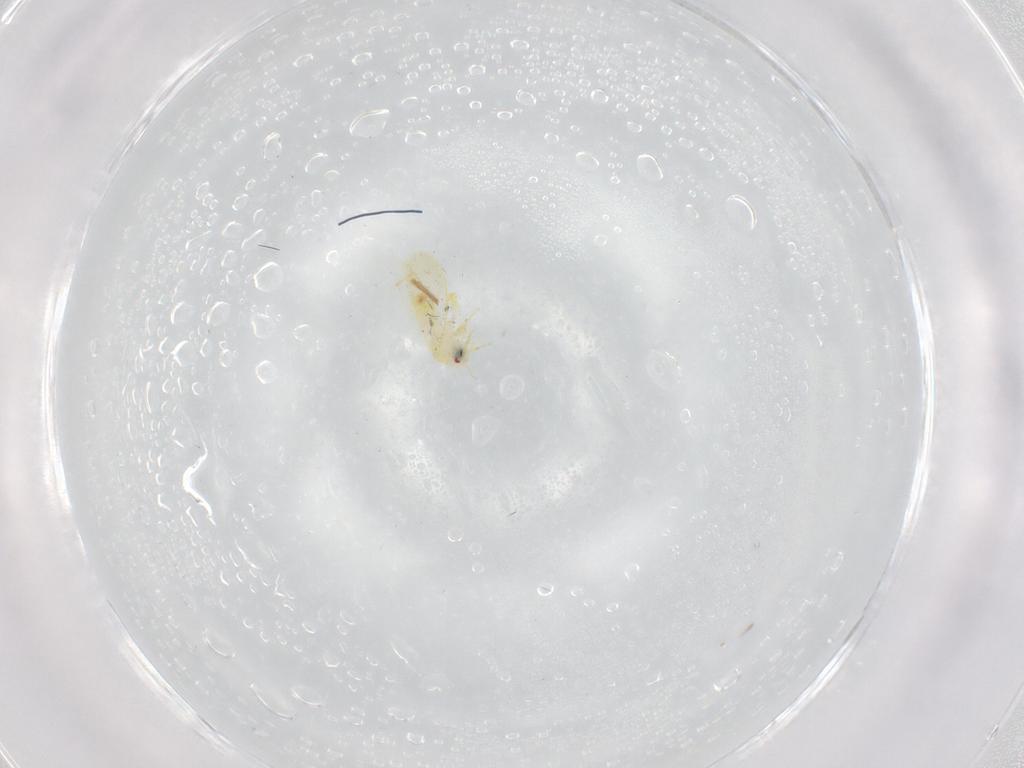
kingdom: Animalia
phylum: Arthropoda
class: Insecta
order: Hemiptera
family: Aleyrodidae
